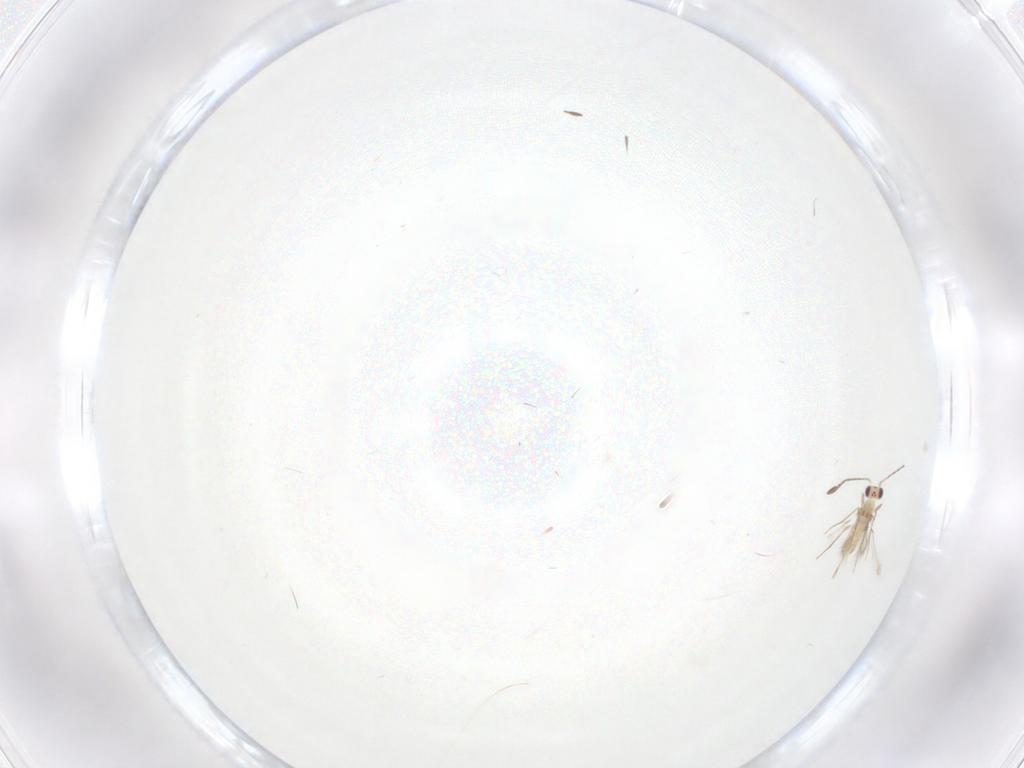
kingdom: Animalia
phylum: Arthropoda
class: Insecta
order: Hymenoptera
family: Mymaridae
